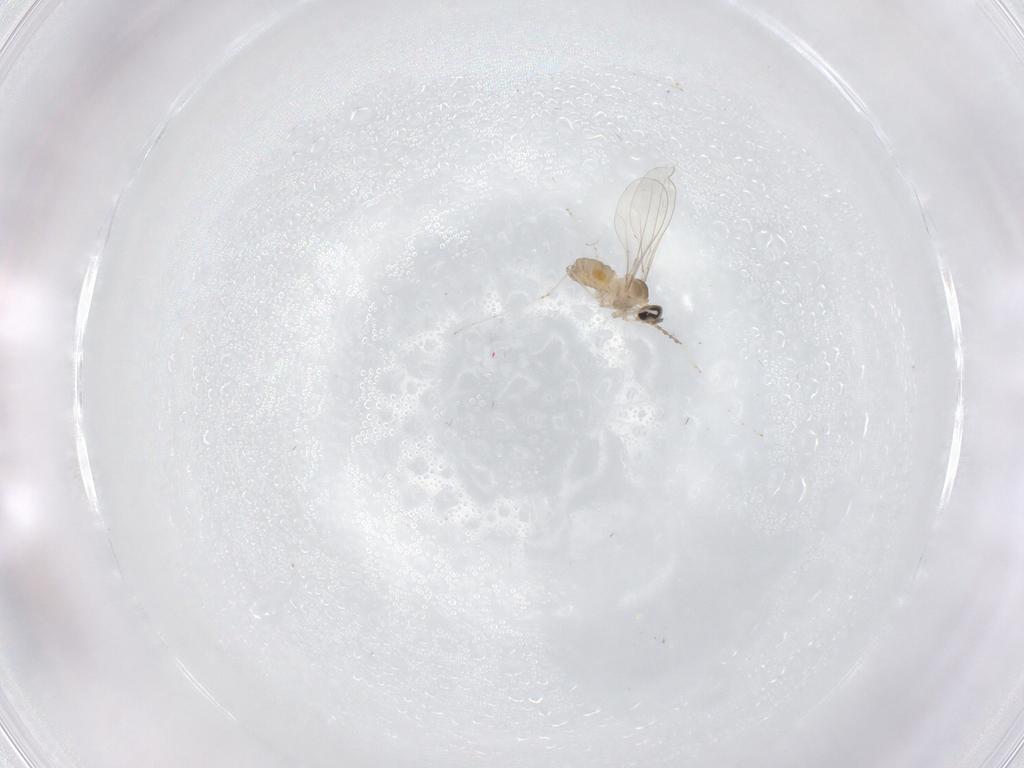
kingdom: Animalia
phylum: Arthropoda
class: Insecta
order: Diptera
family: Cecidomyiidae
